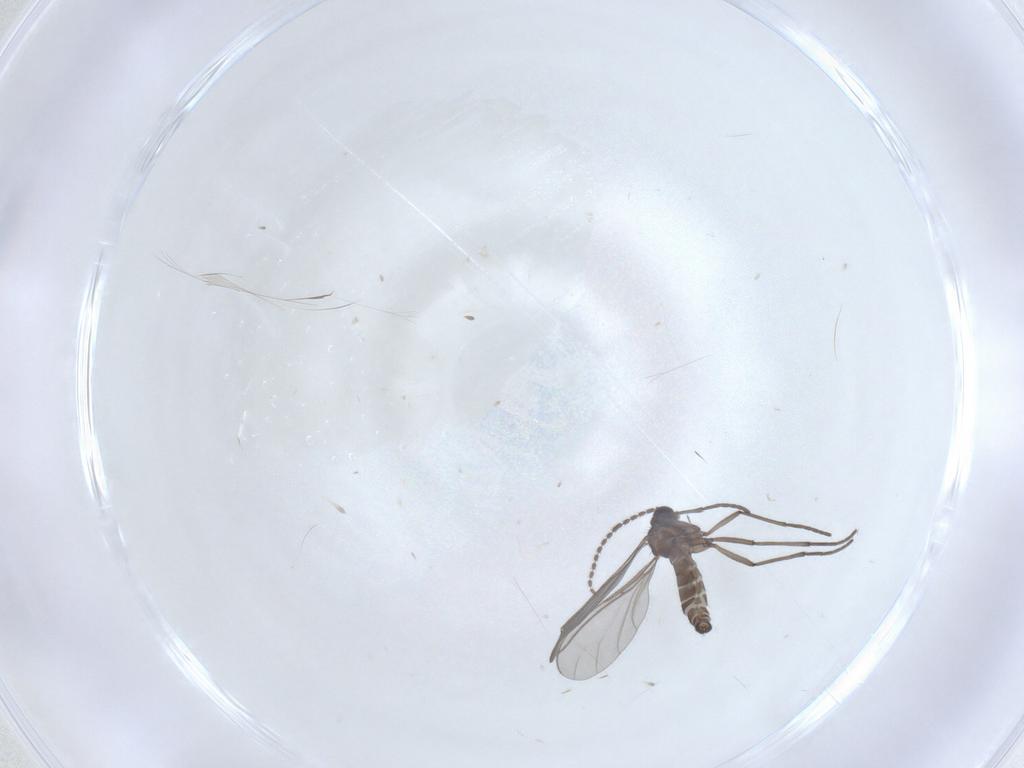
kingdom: Animalia
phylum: Arthropoda
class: Insecta
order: Diptera
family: Sciaridae
